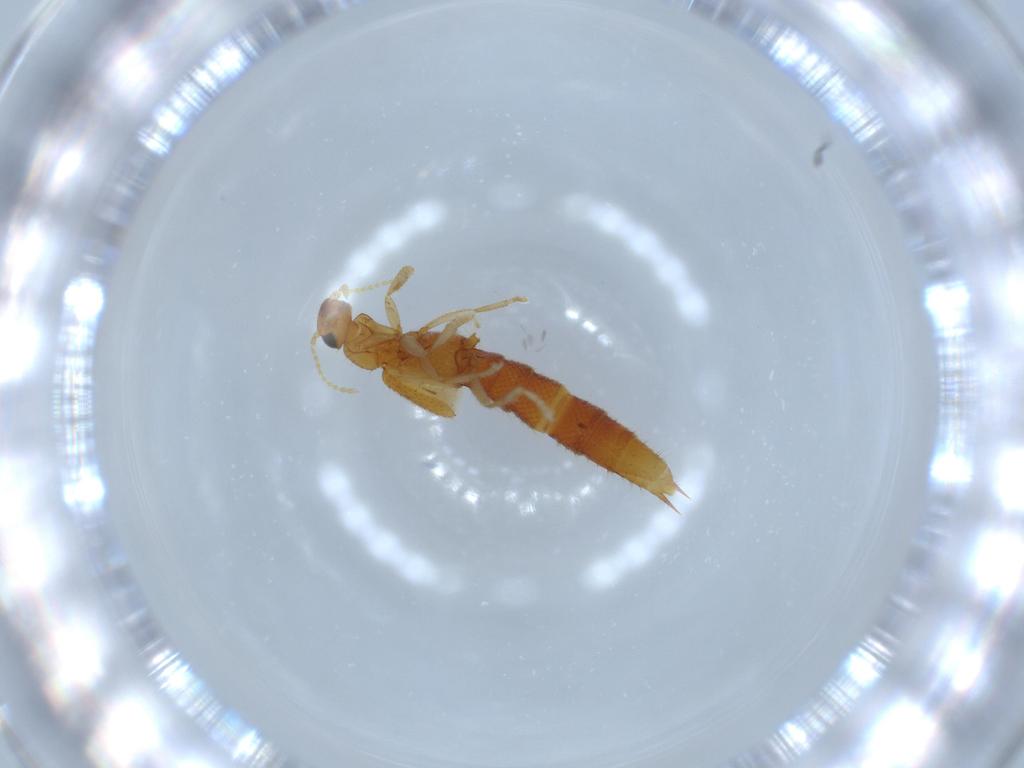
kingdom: Animalia
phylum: Arthropoda
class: Insecta
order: Coleoptera
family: Staphylinidae
